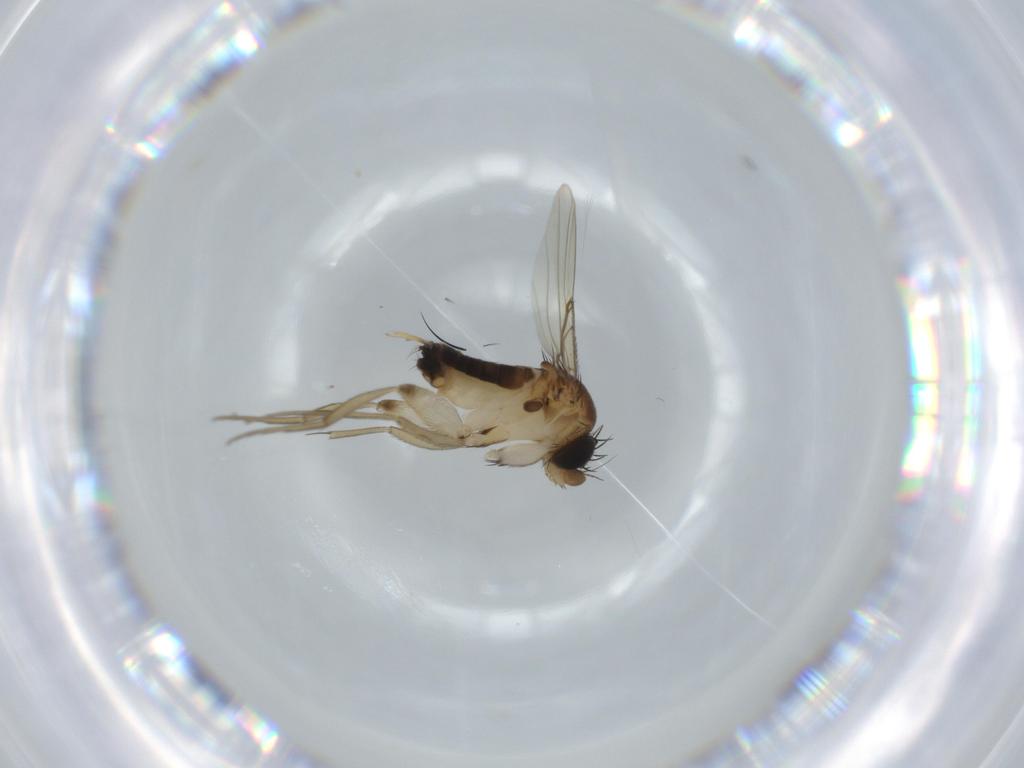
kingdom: Animalia
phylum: Arthropoda
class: Insecta
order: Diptera
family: Phoridae
